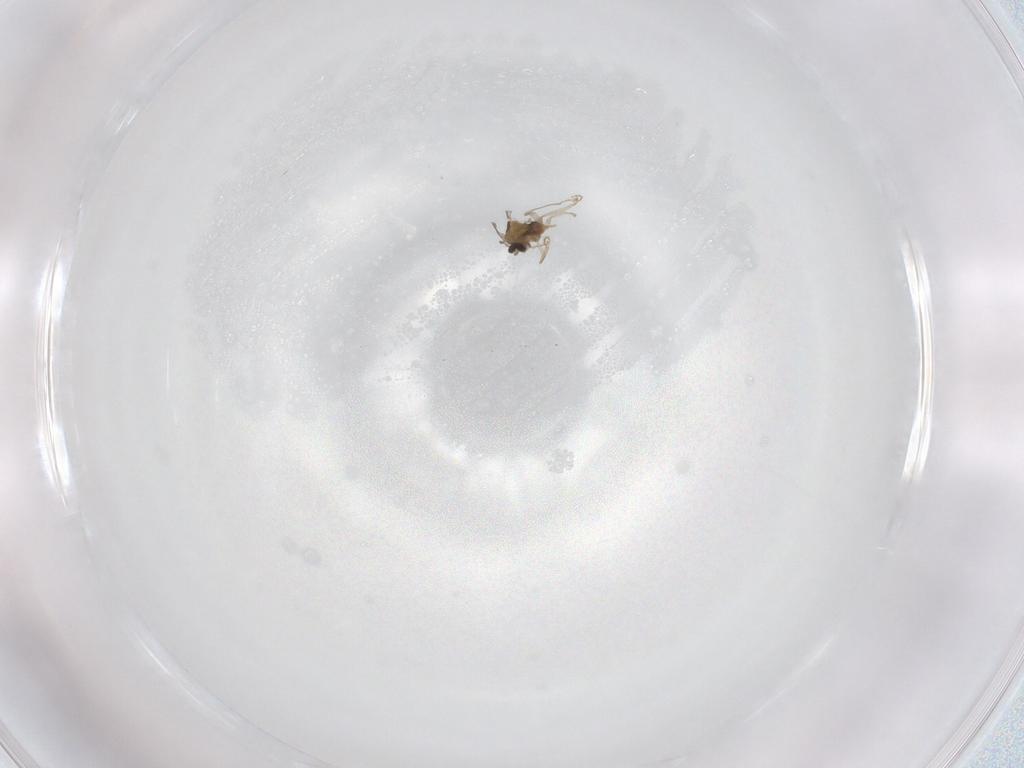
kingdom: Animalia
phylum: Arthropoda
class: Insecta
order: Diptera
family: Cecidomyiidae
